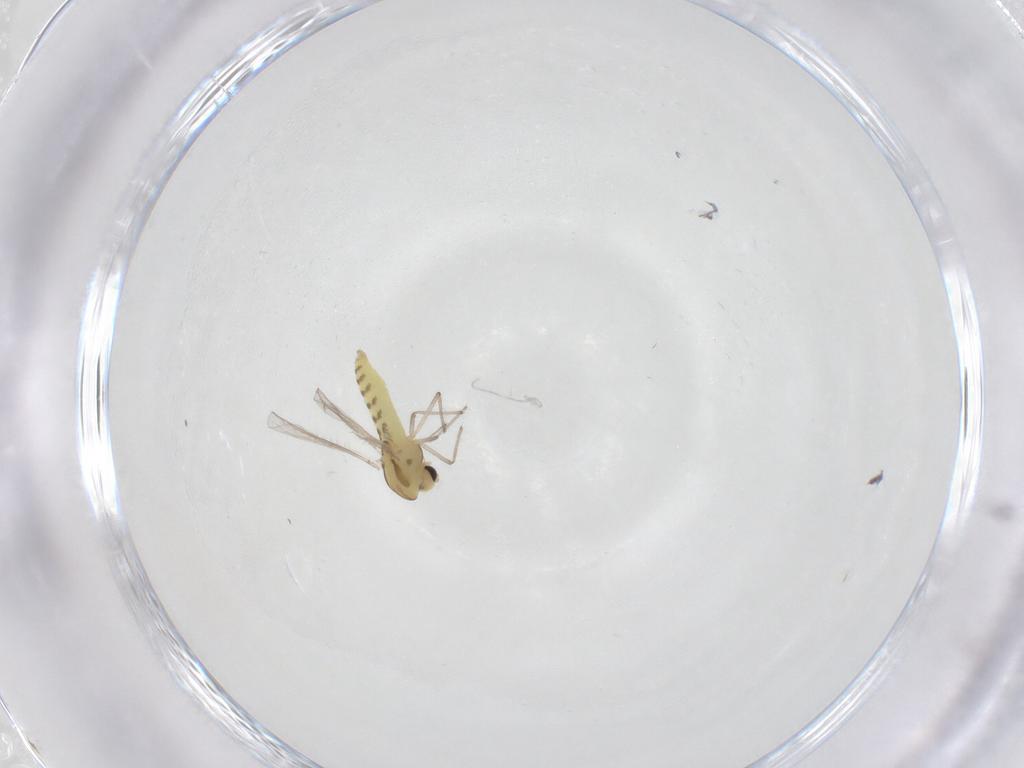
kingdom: Animalia
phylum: Arthropoda
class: Insecta
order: Diptera
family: Chironomidae
